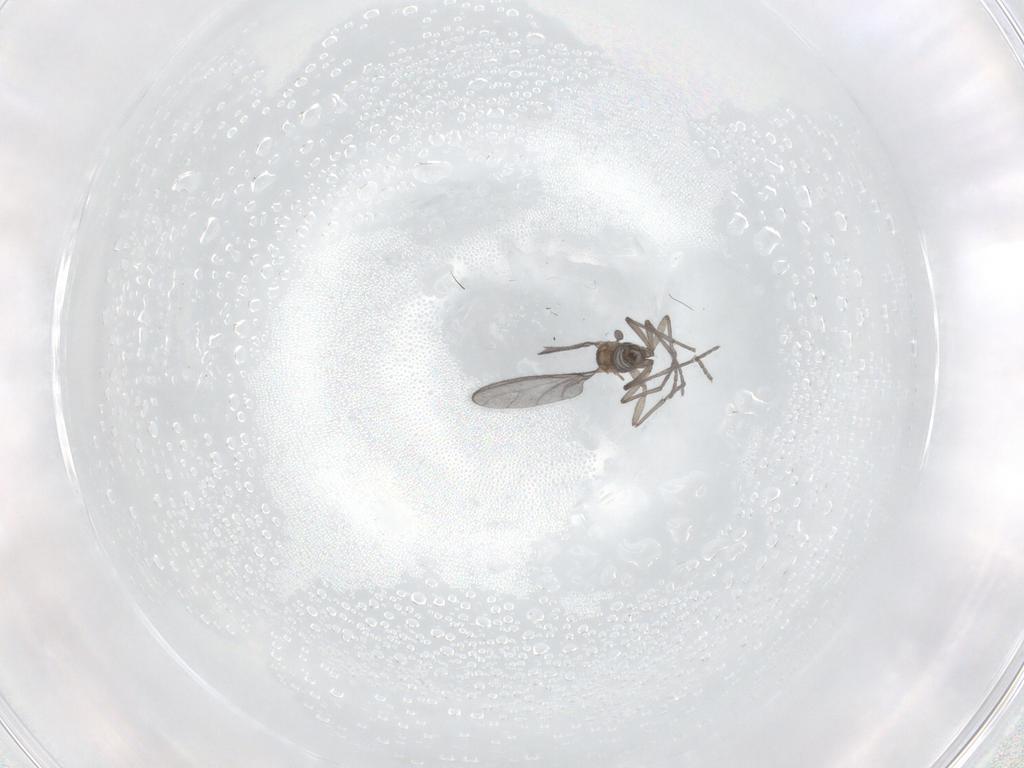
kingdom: Animalia
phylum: Arthropoda
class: Insecta
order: Diptera
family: Sciaridae
